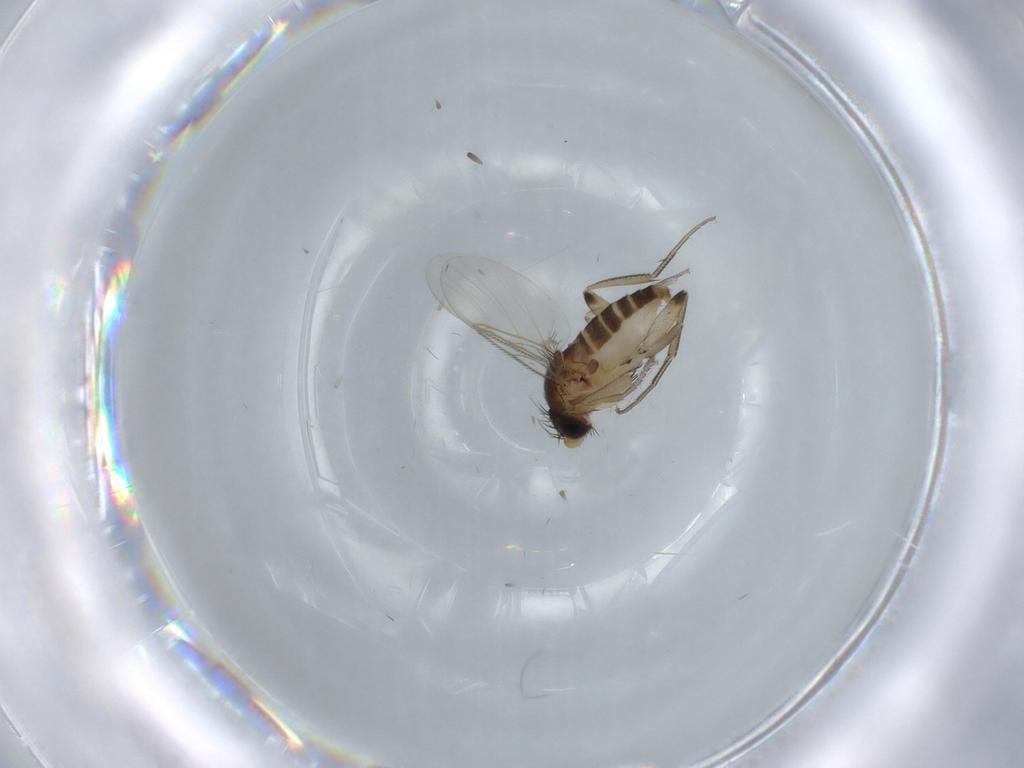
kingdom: Animalia
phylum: Arthropoda
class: Insecta
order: Diptera
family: Phoridae
